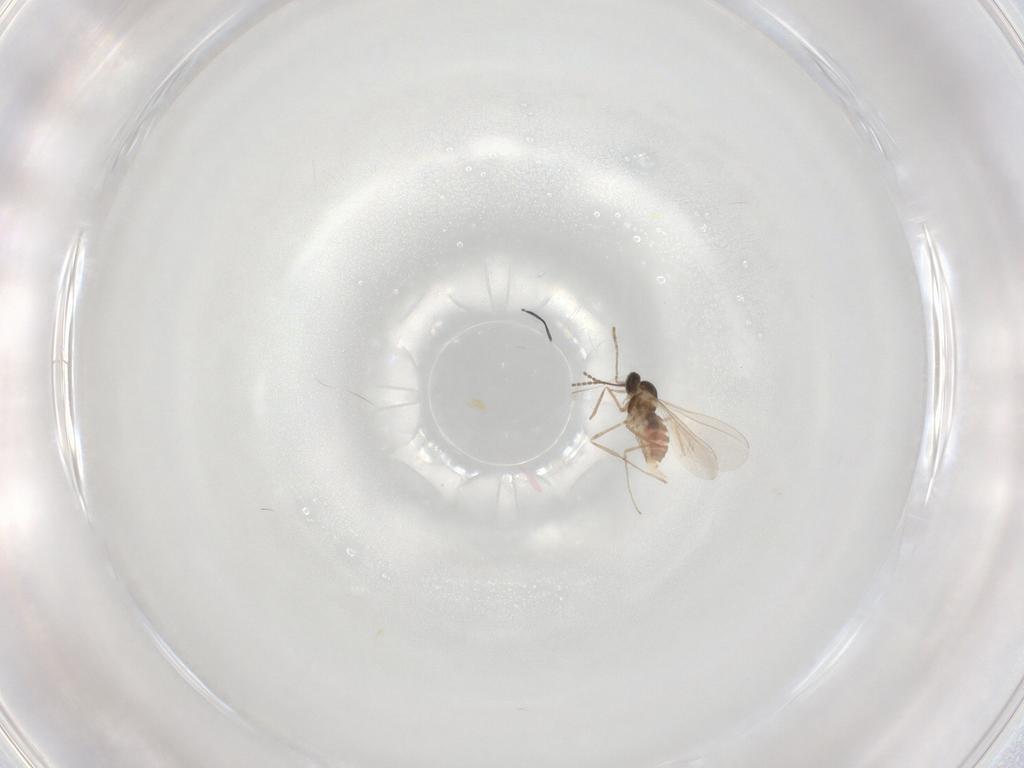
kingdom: Animalia
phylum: Arthropoda
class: Insecta
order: Diptera
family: Cecidomyiidae
